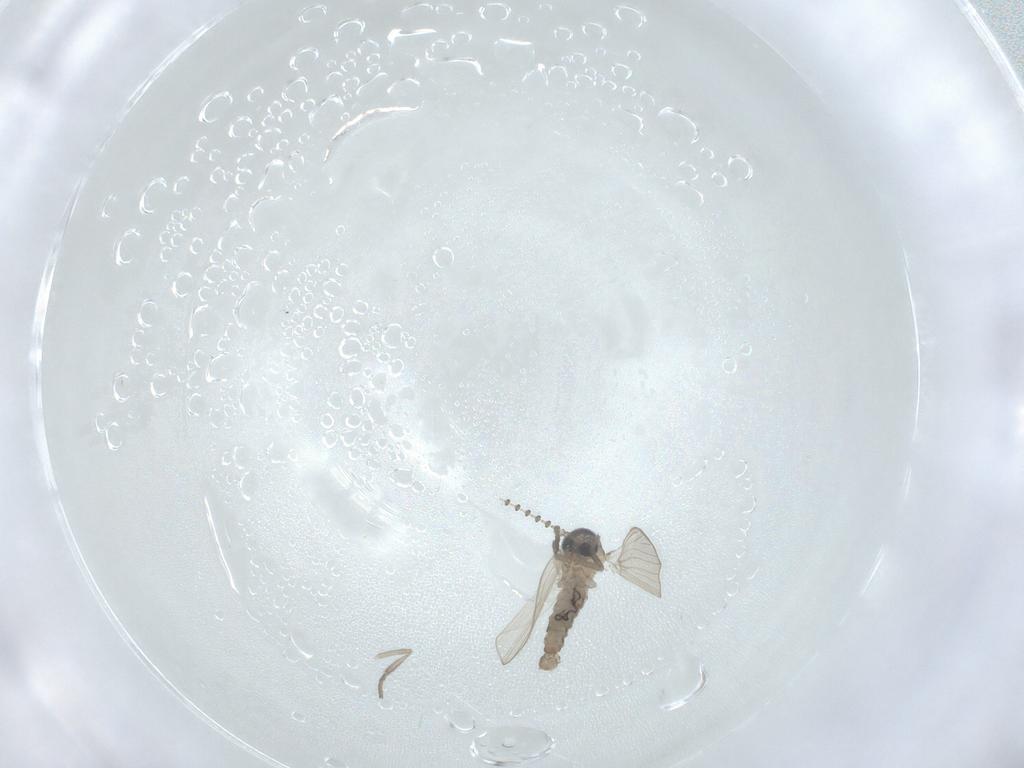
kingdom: Animalia
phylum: Arthropoda
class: Insecta
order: Diptera
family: Psychodidae
